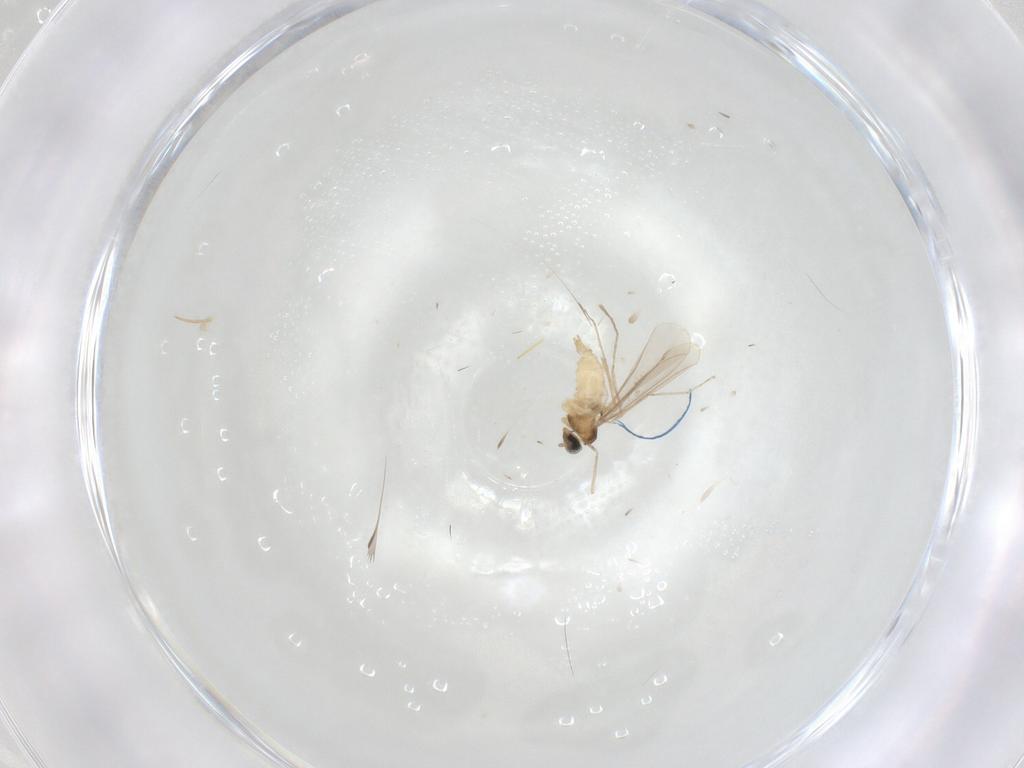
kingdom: Animalia
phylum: Arthropoda
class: Insecta
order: Diptera
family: Cecidomyiidae
